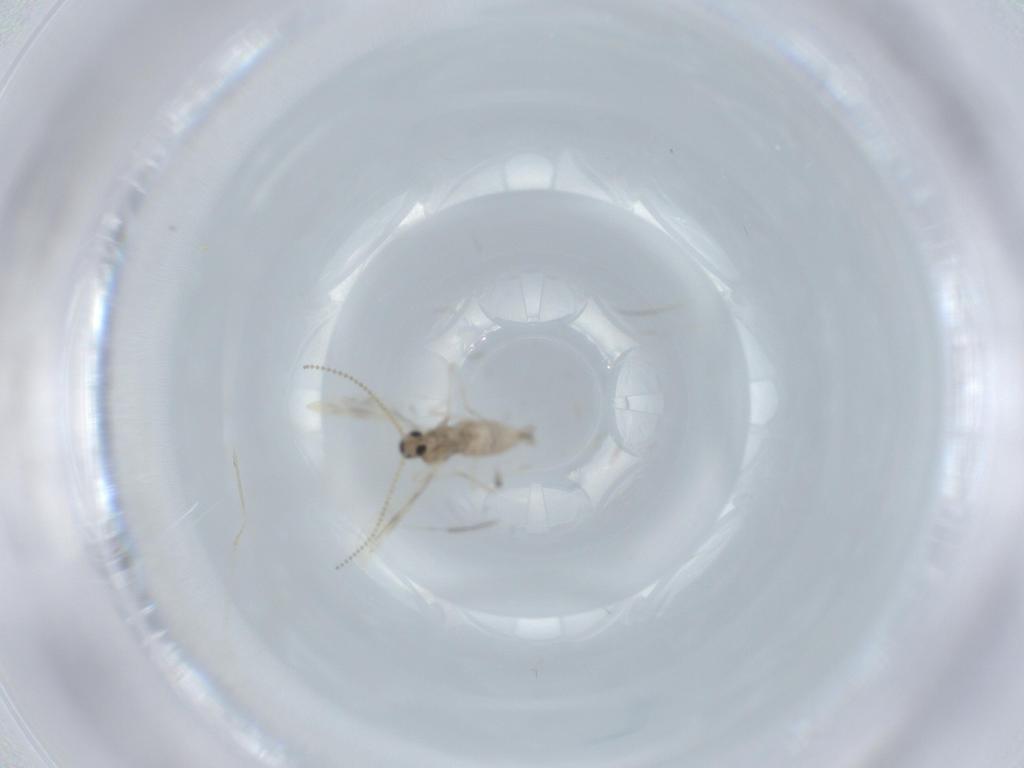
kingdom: Animalia
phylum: Arthropoda
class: Insecta
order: Diptera
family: Cecidomyiidae
